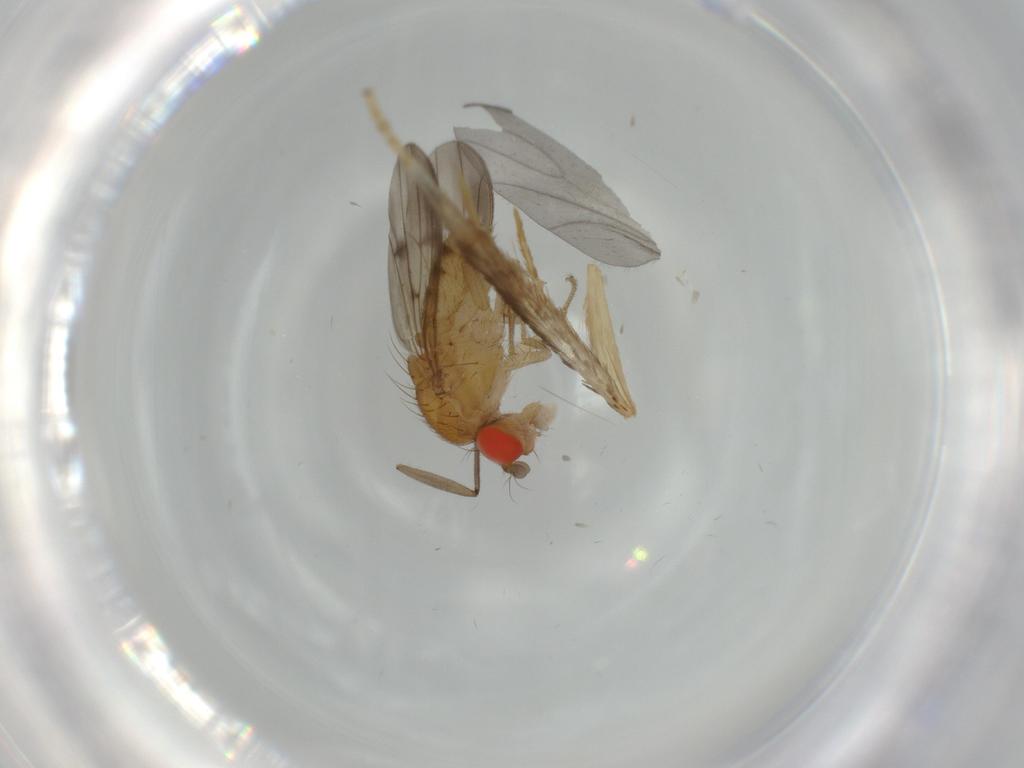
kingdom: Animalia
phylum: Arthropoda
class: Insecta
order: Diptera
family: Drosophilidae
